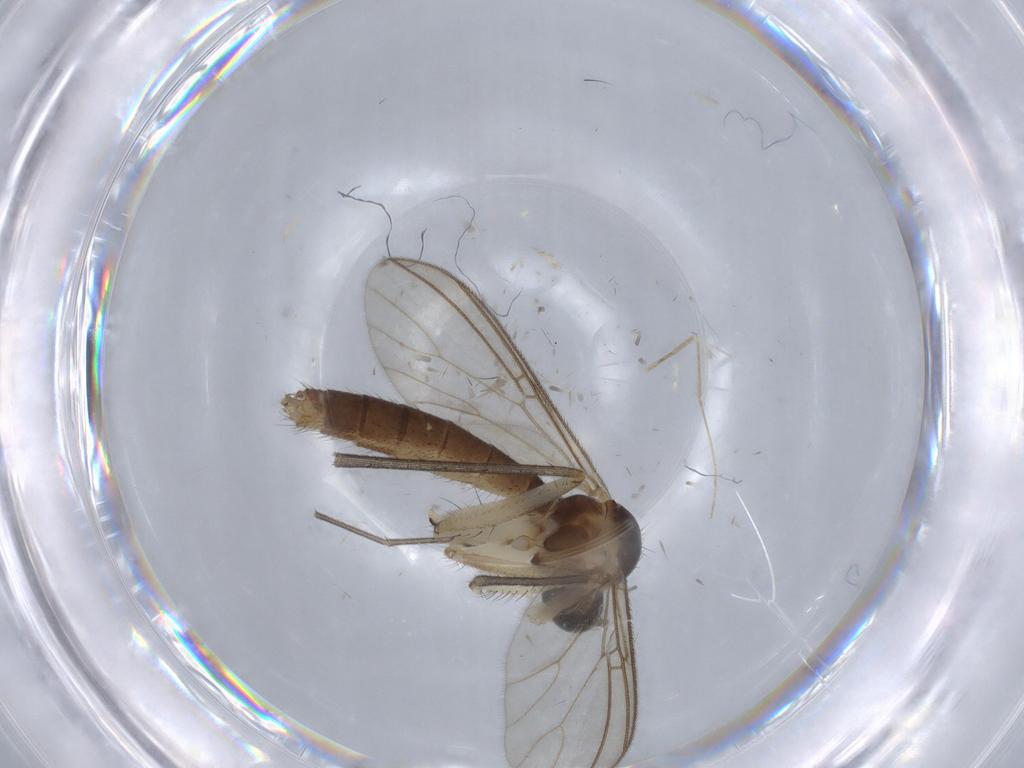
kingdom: Animalia
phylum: Arthropoda
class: Insecta
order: Diptera
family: Mycetophilidae
